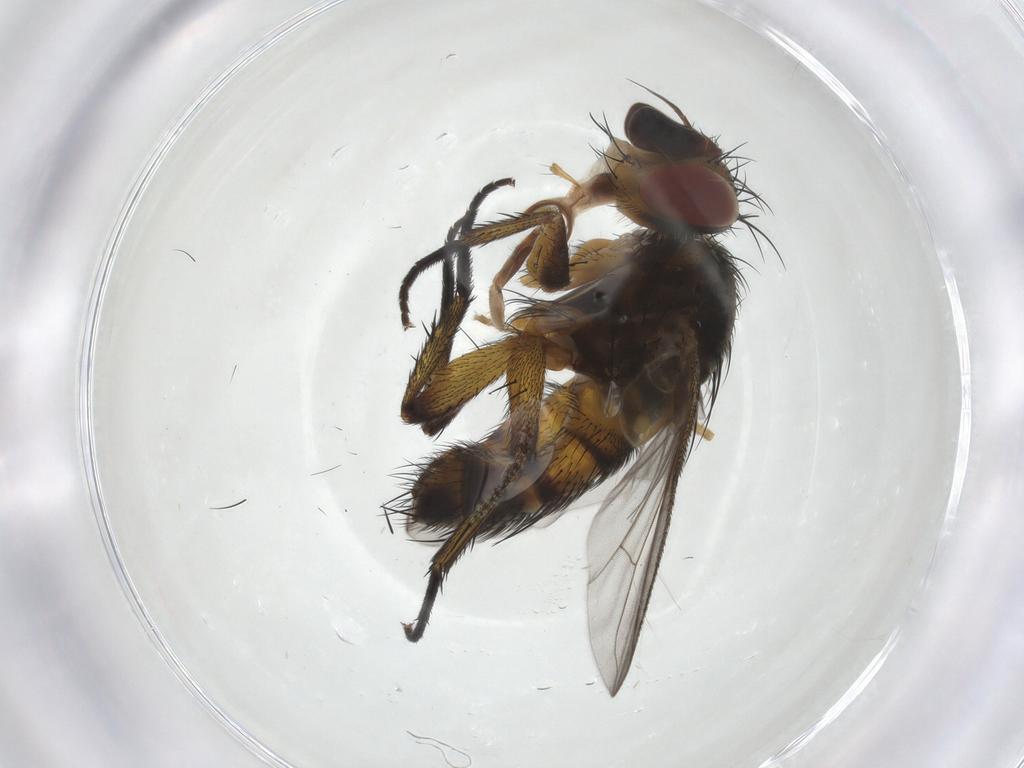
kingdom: Animalia
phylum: Arthropoda
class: Insecta
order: Diptera
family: Tachinidae
